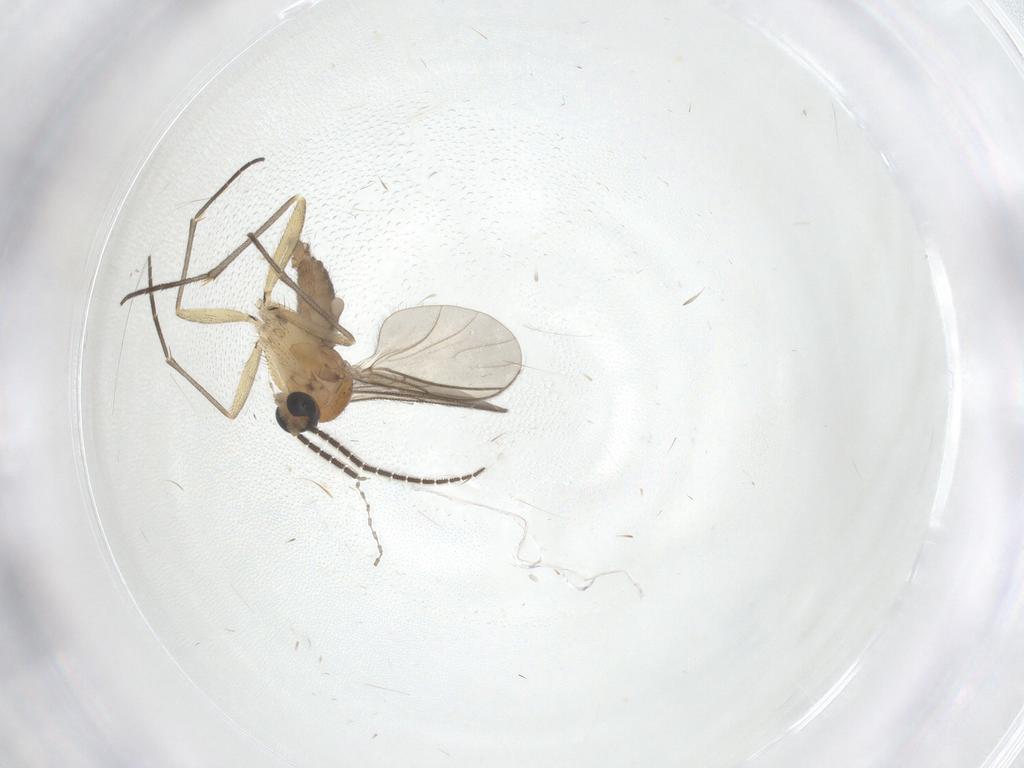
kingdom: Animalia
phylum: Arthropoda
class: Insecta
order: Diptera
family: Sciaridae
